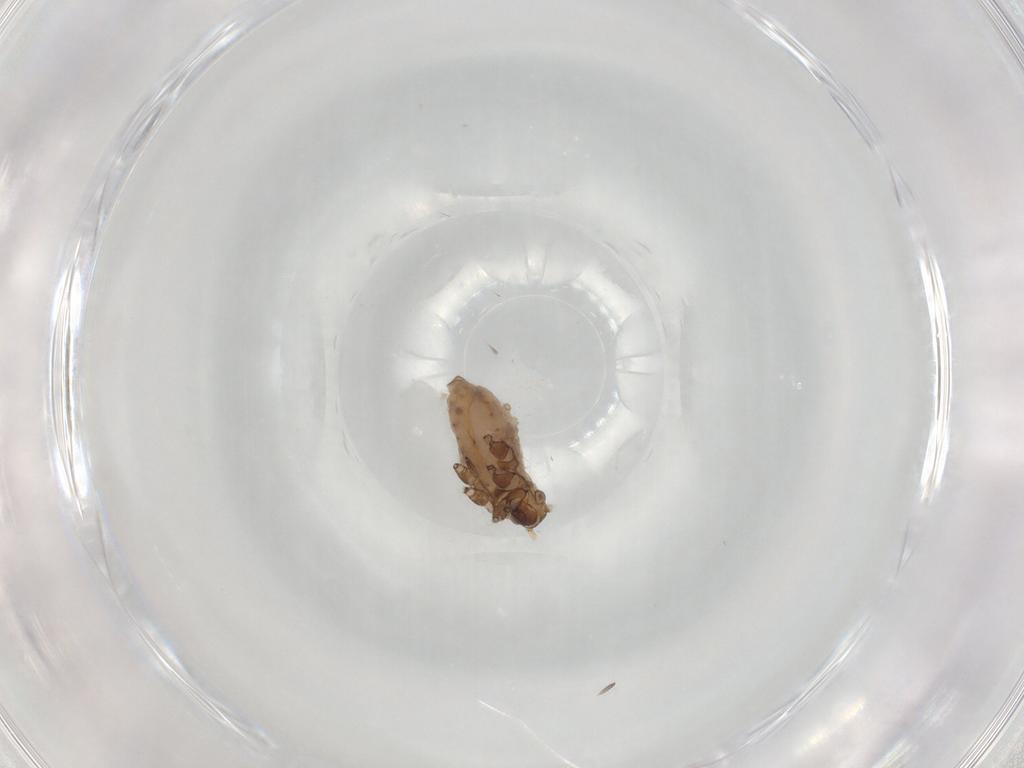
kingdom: Animalia
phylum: Arthropoda
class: Insecta
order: Hemiptera
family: Aphididae
